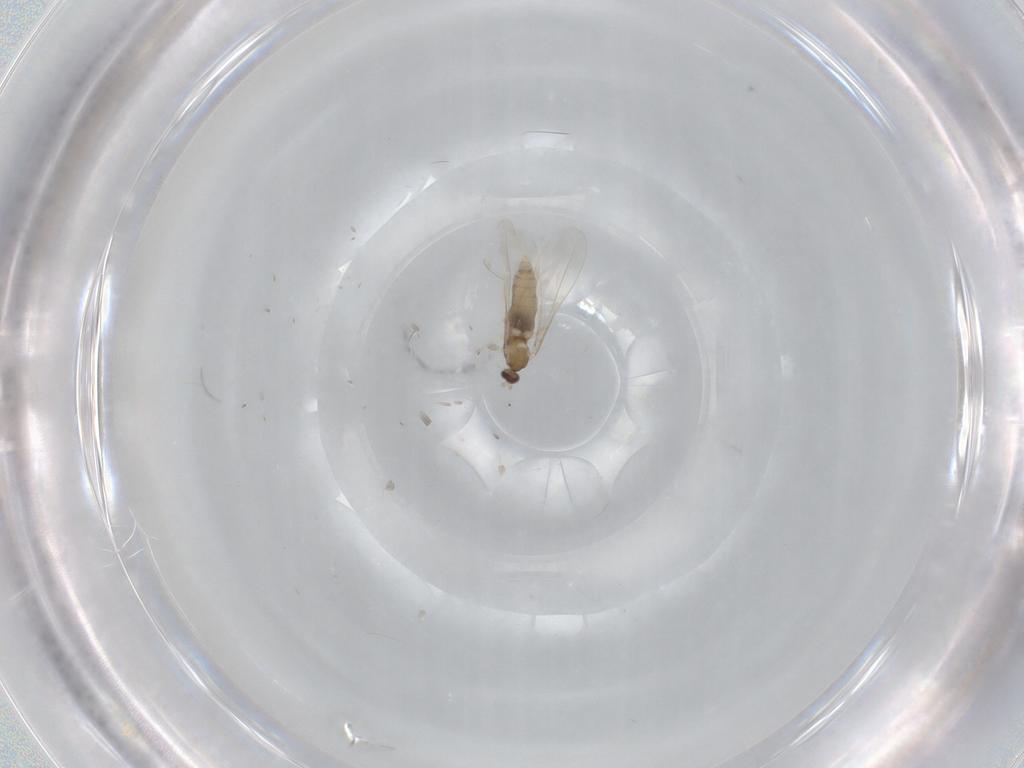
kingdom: Animalia
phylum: Arthropoda
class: Insecta
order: Diptera
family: Cecidomyiidae
